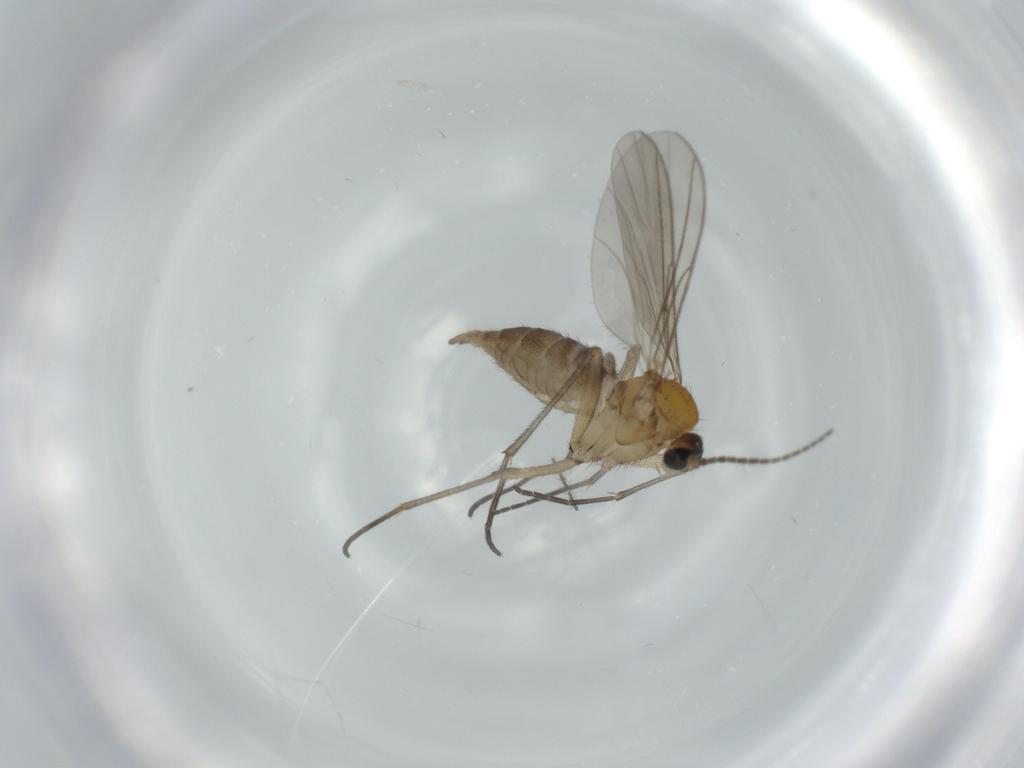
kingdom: Animalia
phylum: Arthropoda
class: Insecta
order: Diptera
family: Sciaridae
